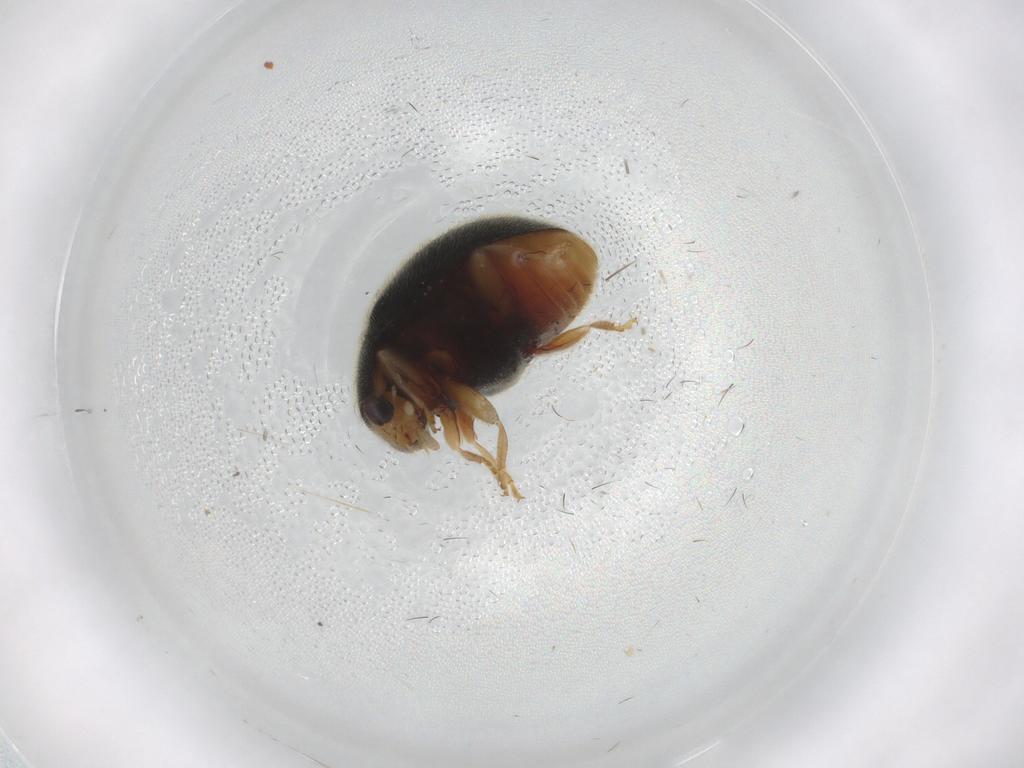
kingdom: Animalia
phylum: Arthropoda
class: Insecta
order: Coleoptera
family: Coccinellidae
